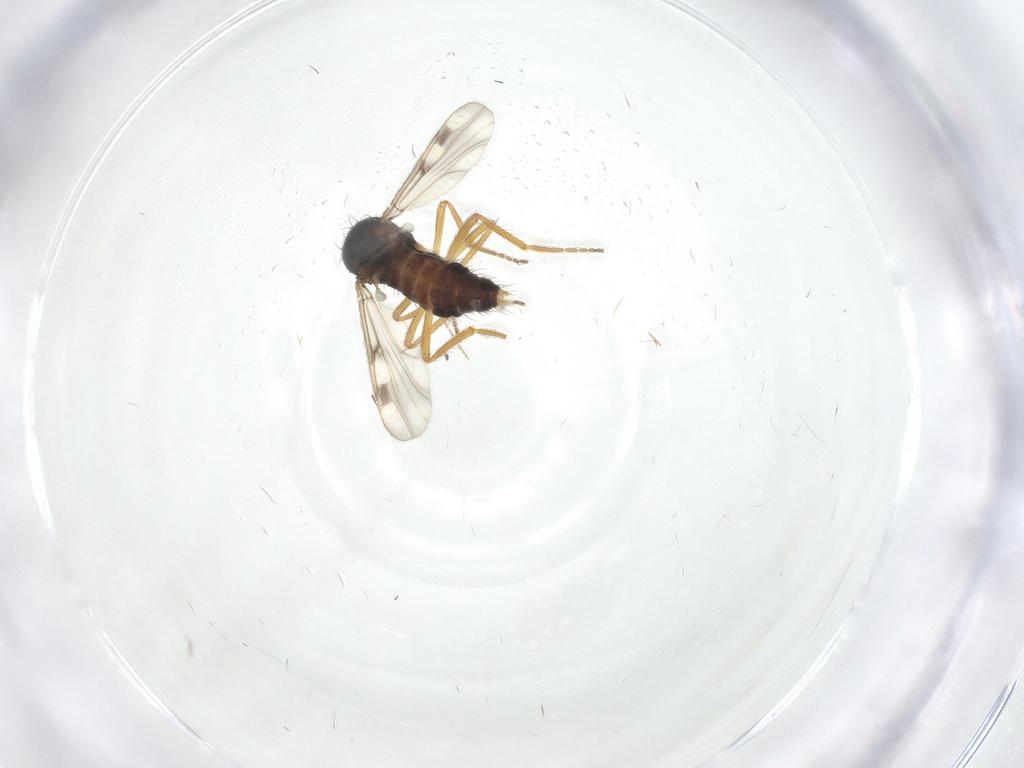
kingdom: Animalia
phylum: Arthropoda
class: Insecta
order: Diptera
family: Ceratopogonidae
